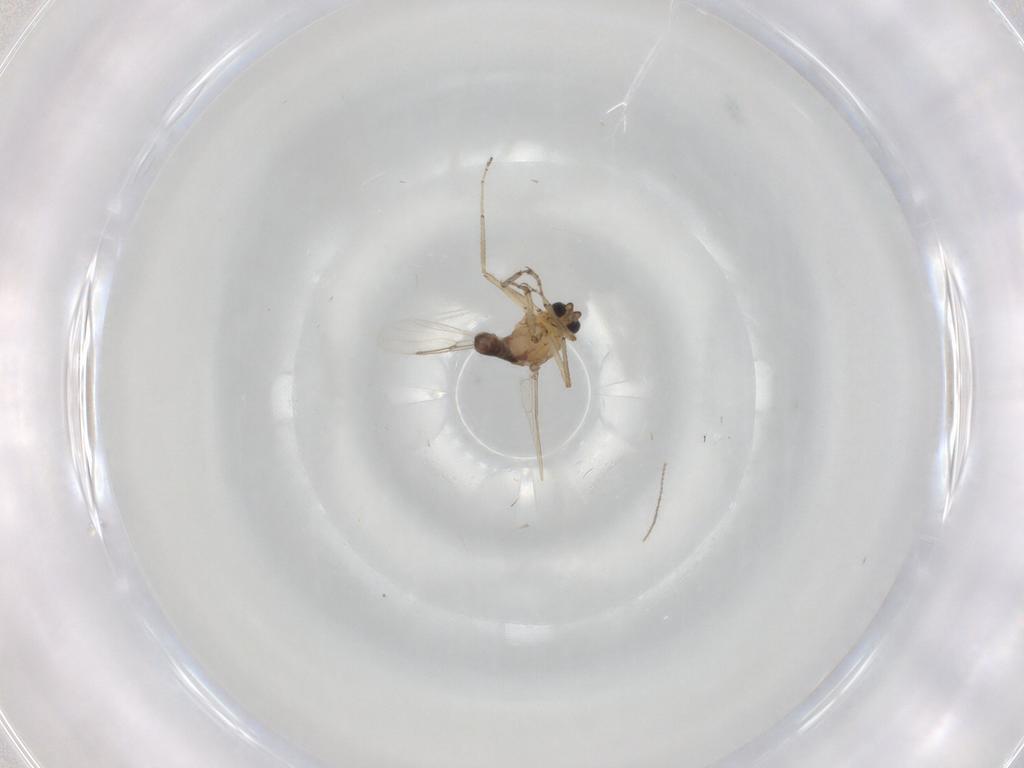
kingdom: Animalia
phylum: Arthropoda
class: Insecta
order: Diptera
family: Ceratopogonidae
